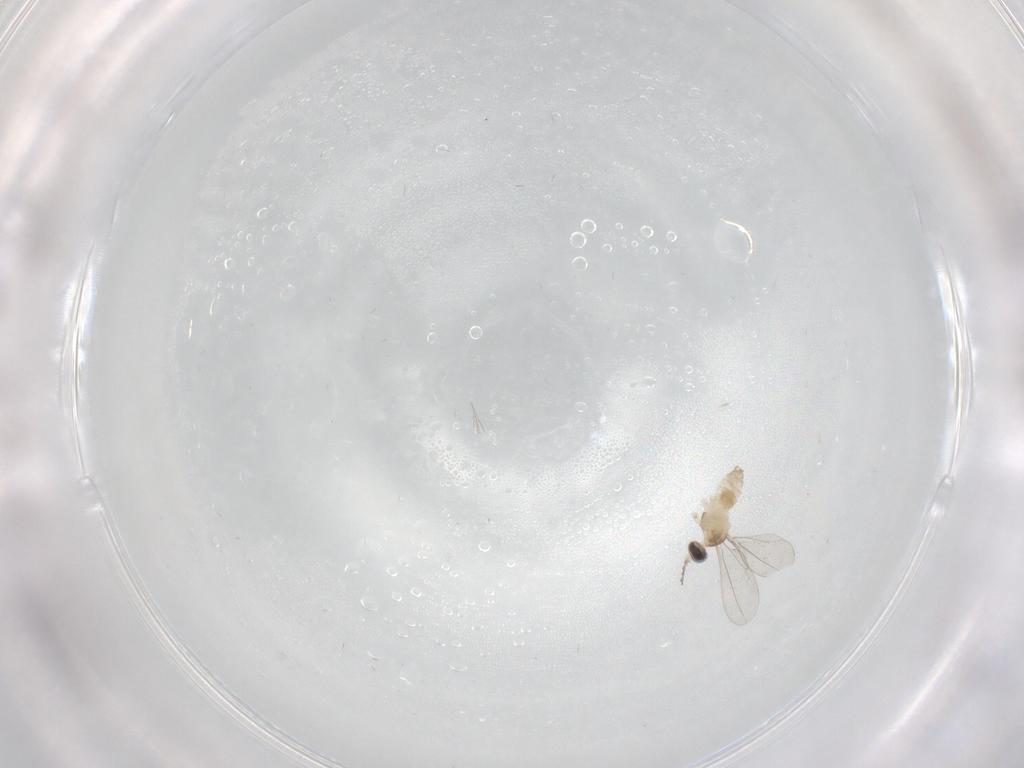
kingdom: Animalia
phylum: Arthropoda
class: Insecta
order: Diptera
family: Cecidomyiidae
